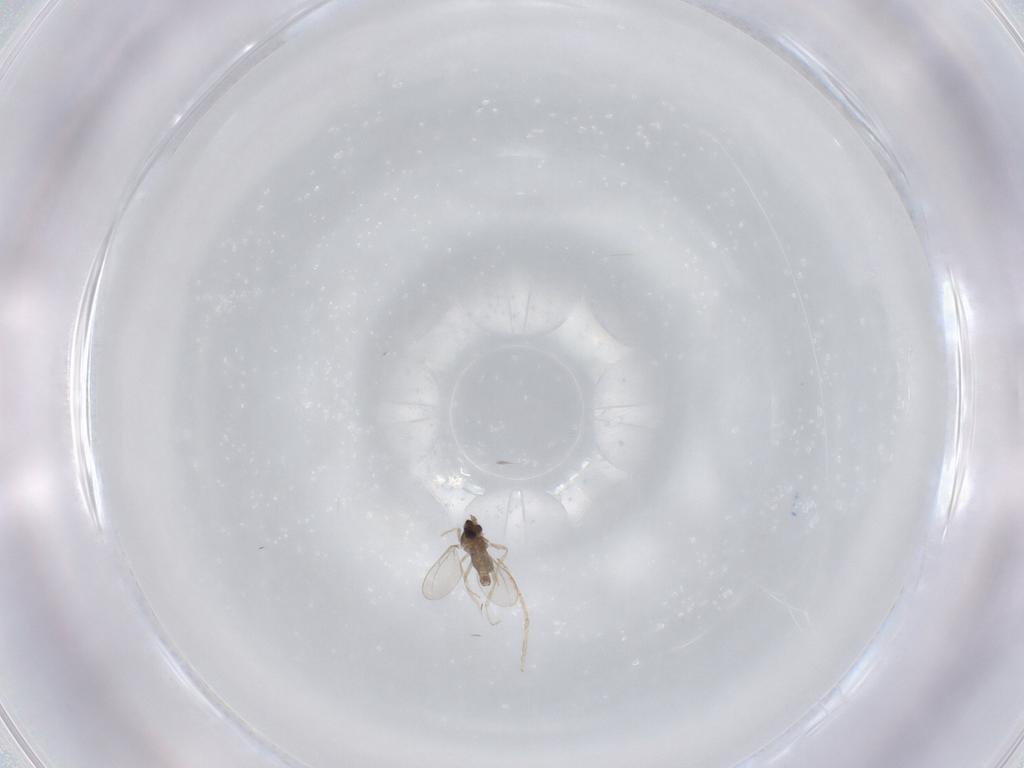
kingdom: Animalia
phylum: Arthropoda
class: Insecta
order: Diptera
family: Cecidomyiidae
